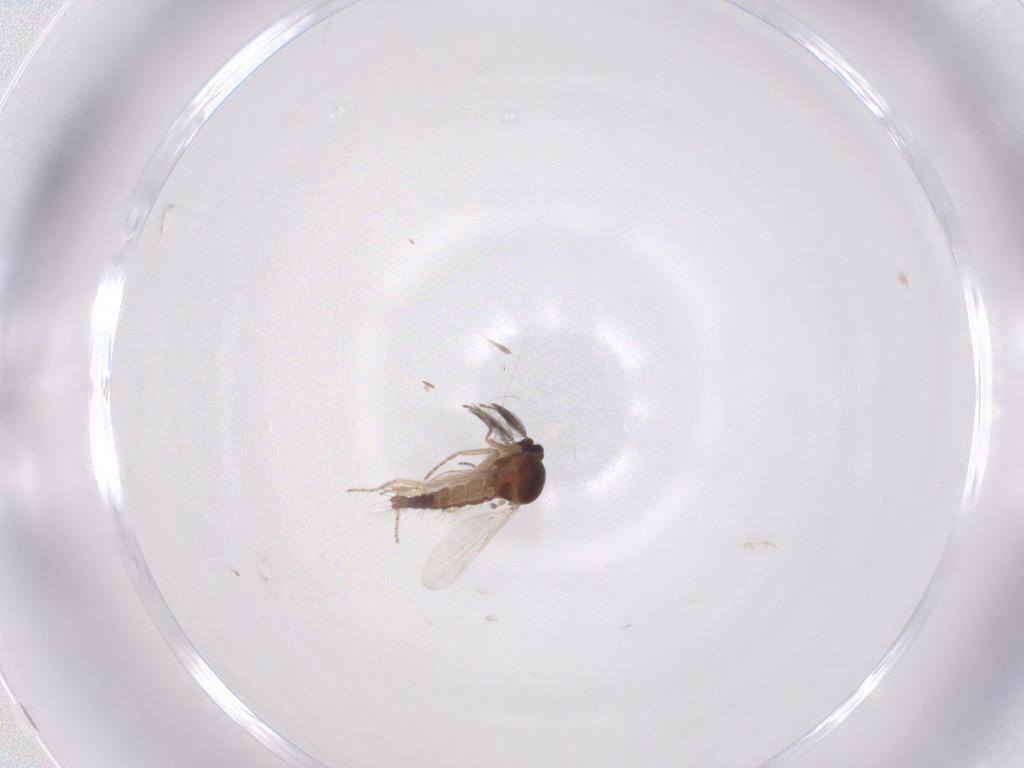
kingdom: Animalia
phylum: Arthropoda
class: Insecta
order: Diptera
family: Ceratopogonidae
